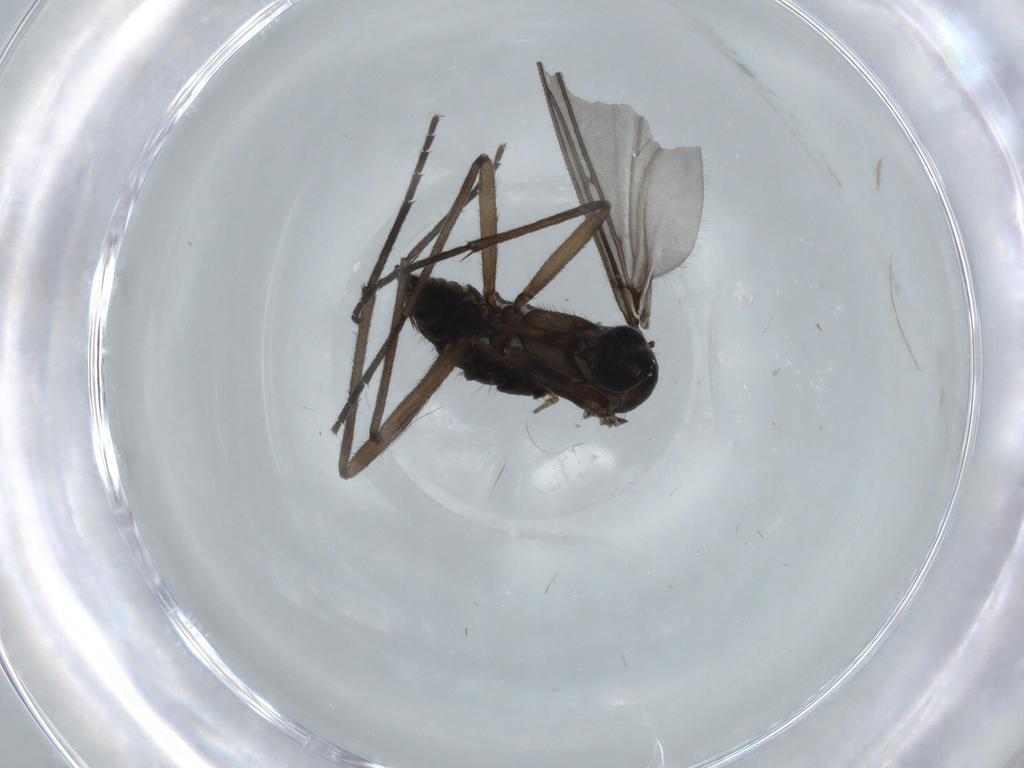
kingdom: Animalia
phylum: Arthropoda
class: Insecta
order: Diptera
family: Sciaridae
